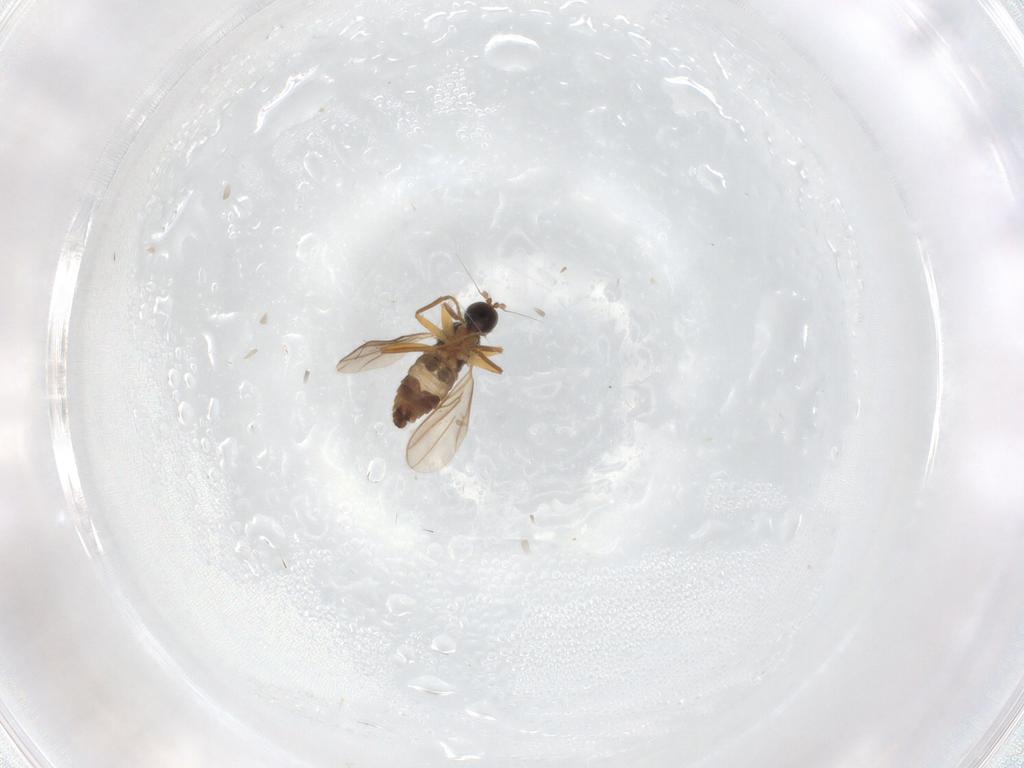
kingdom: Animalia
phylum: Arthropoda
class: Insecta
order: Diptera
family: Hybotidae
